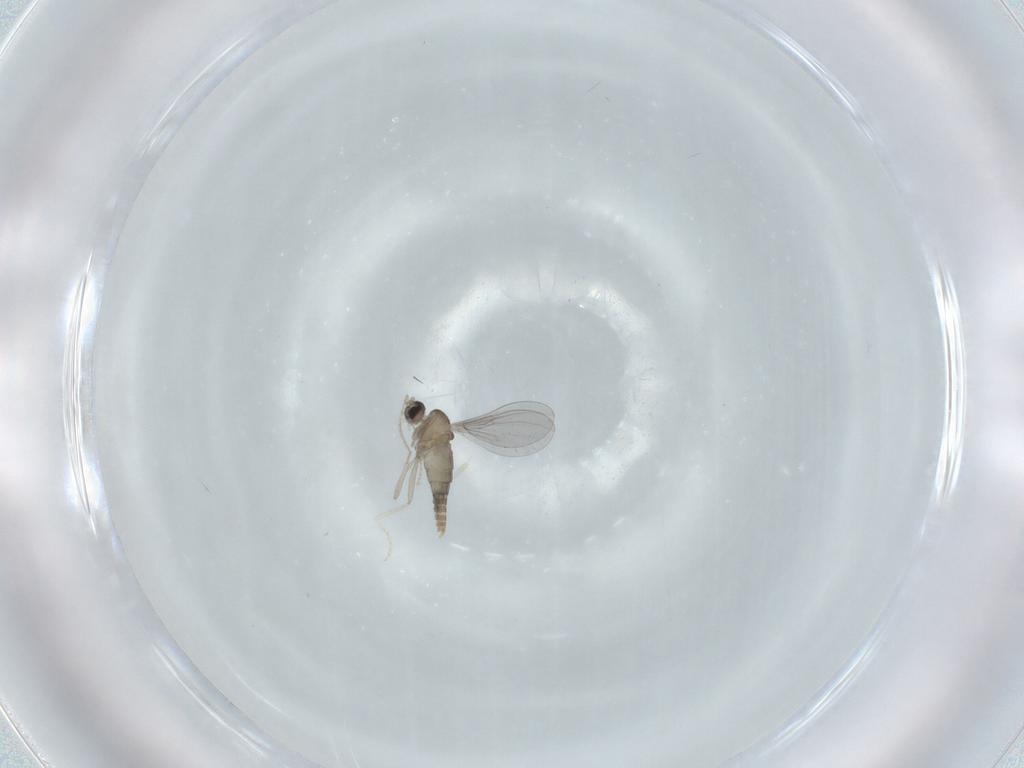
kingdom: Animalia
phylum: Arthropoda
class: Insecta
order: Diptera
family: Cecidomyiidae
